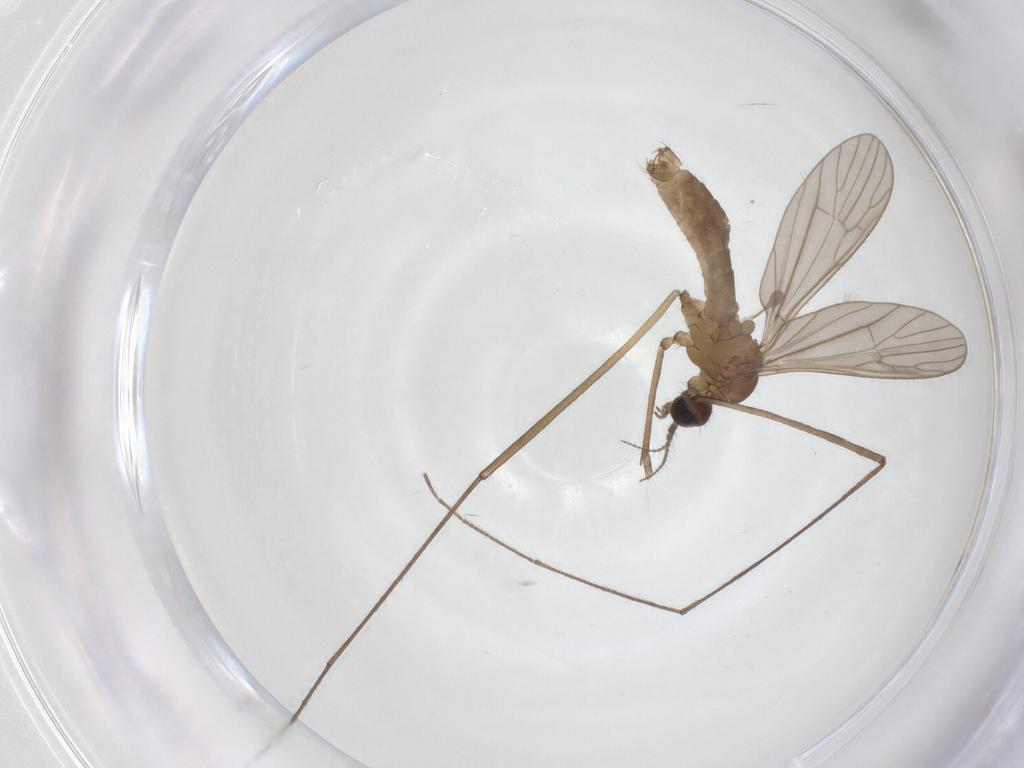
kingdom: Animalia
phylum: Arthropoda
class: Insecta
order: Diptera
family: Limoniidae
